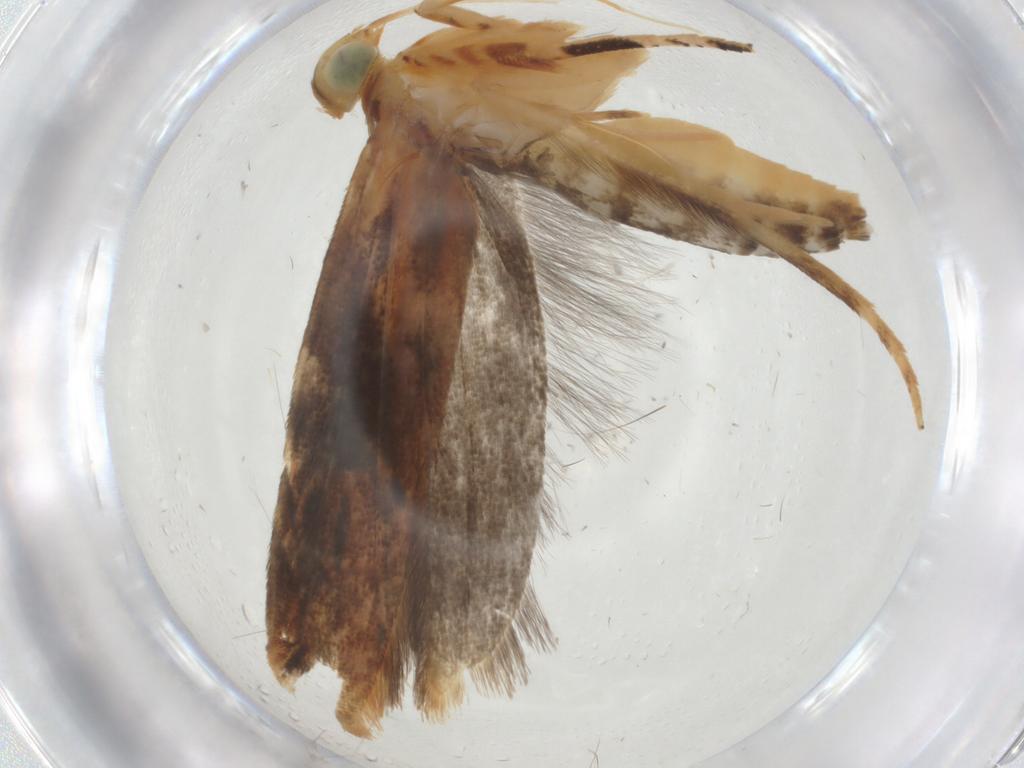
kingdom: Animalia
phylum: Arthropoda
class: Insecta
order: Lepidoptera
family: Gelechiidae
